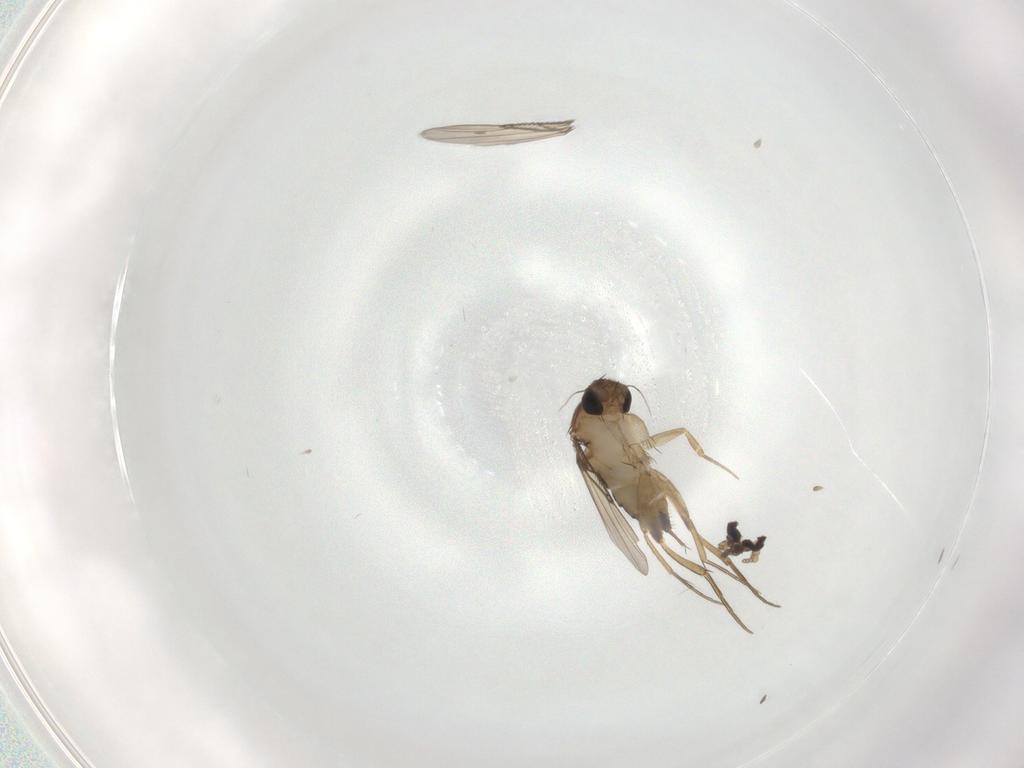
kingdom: Animalia
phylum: Arthropoda
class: Insecta
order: Diptera
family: Phoridae
